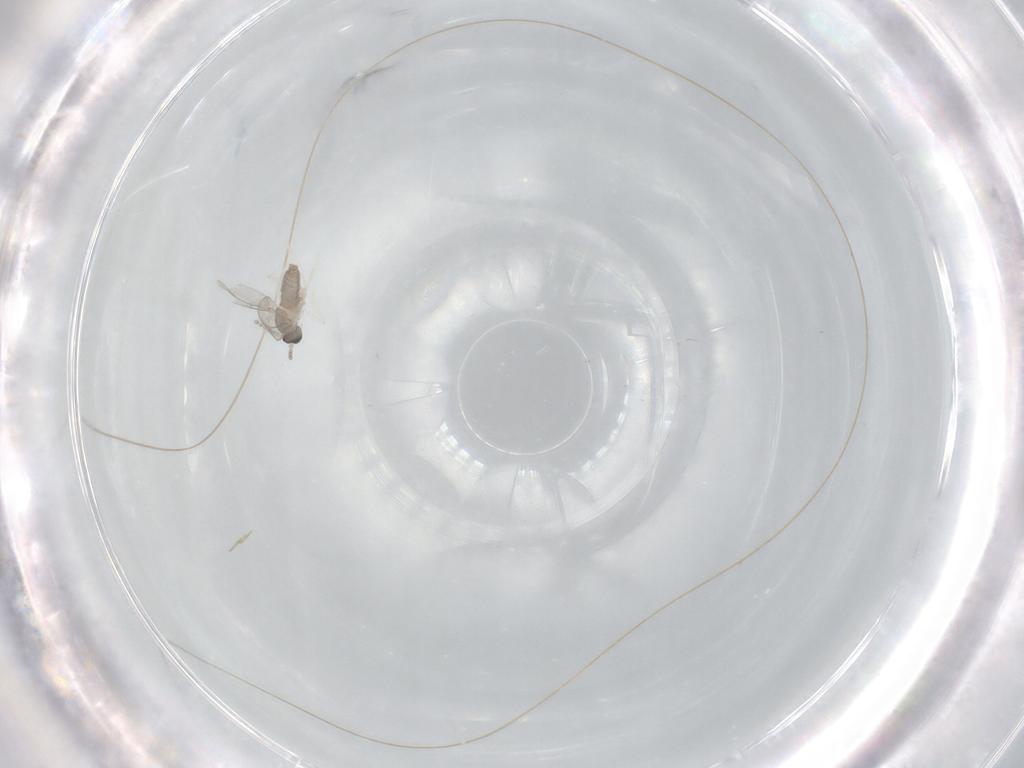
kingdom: Animalia
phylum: Arthropoda
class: Insecta
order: Diptera
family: Cecidomyiidae
